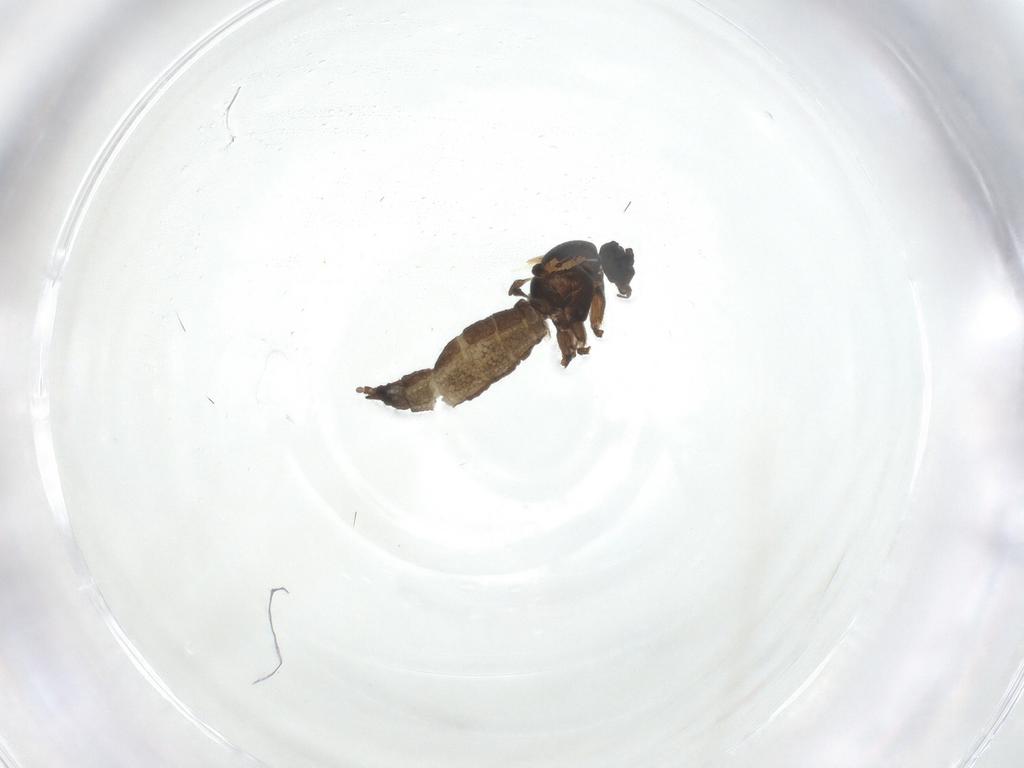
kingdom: Animalia
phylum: Arthropoda
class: Insecta
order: Diptera
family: Sciaridae
